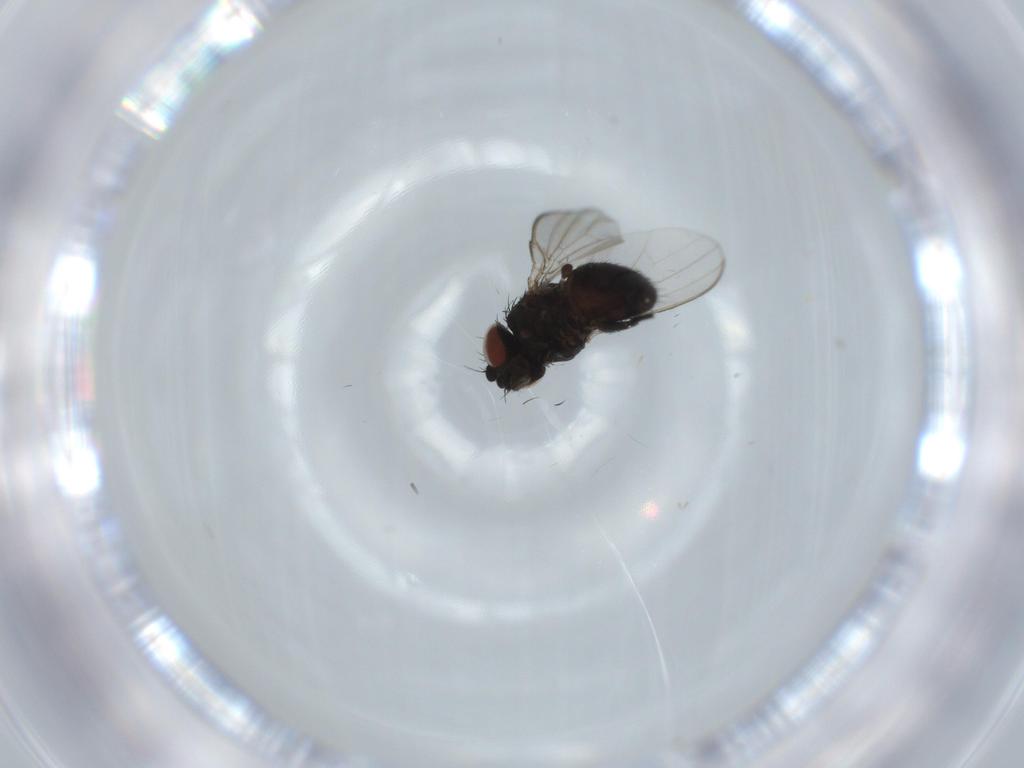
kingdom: Animalia
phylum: Arthropoda
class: Insecta
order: Diptera
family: Milichiidae
